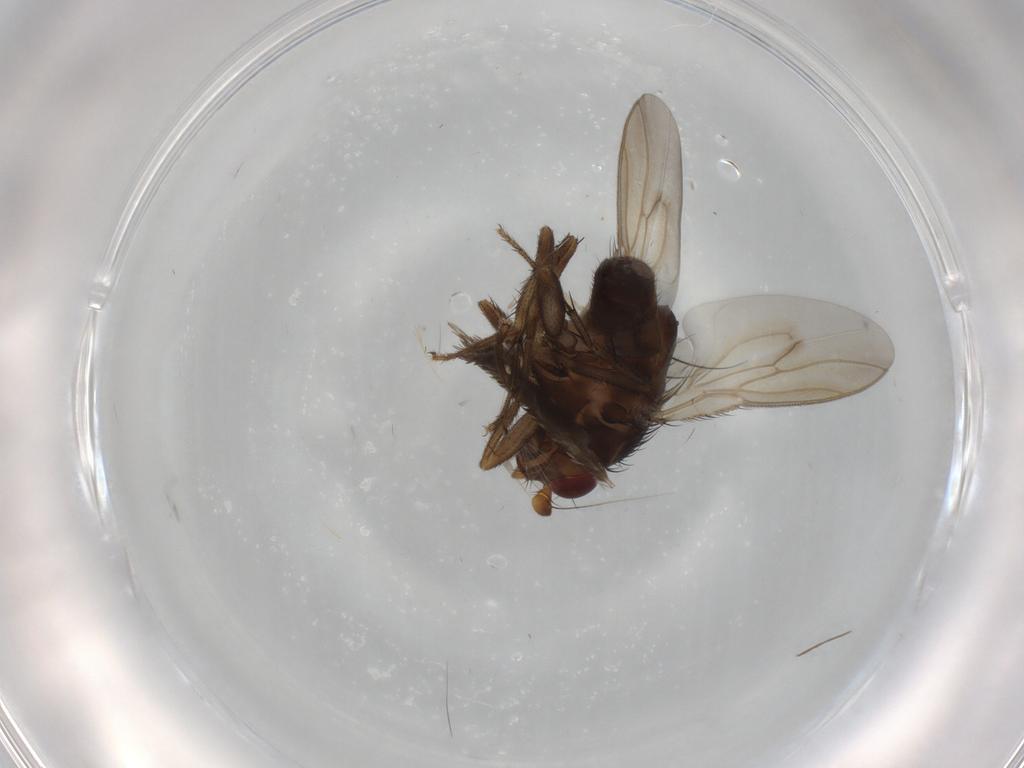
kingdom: Animalia
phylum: Arthropoda
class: Insecta
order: Diptera
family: Sphaeroceridae
